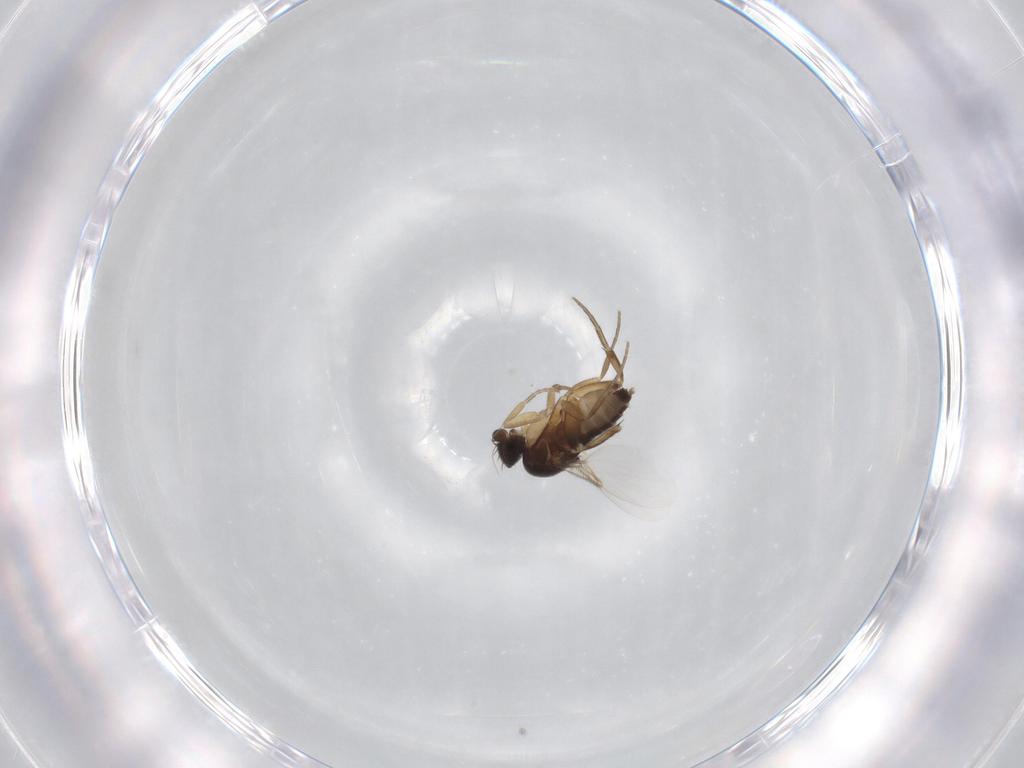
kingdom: Animalia
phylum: Arthropoda
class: Insecta
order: Diptera
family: Phoridae
